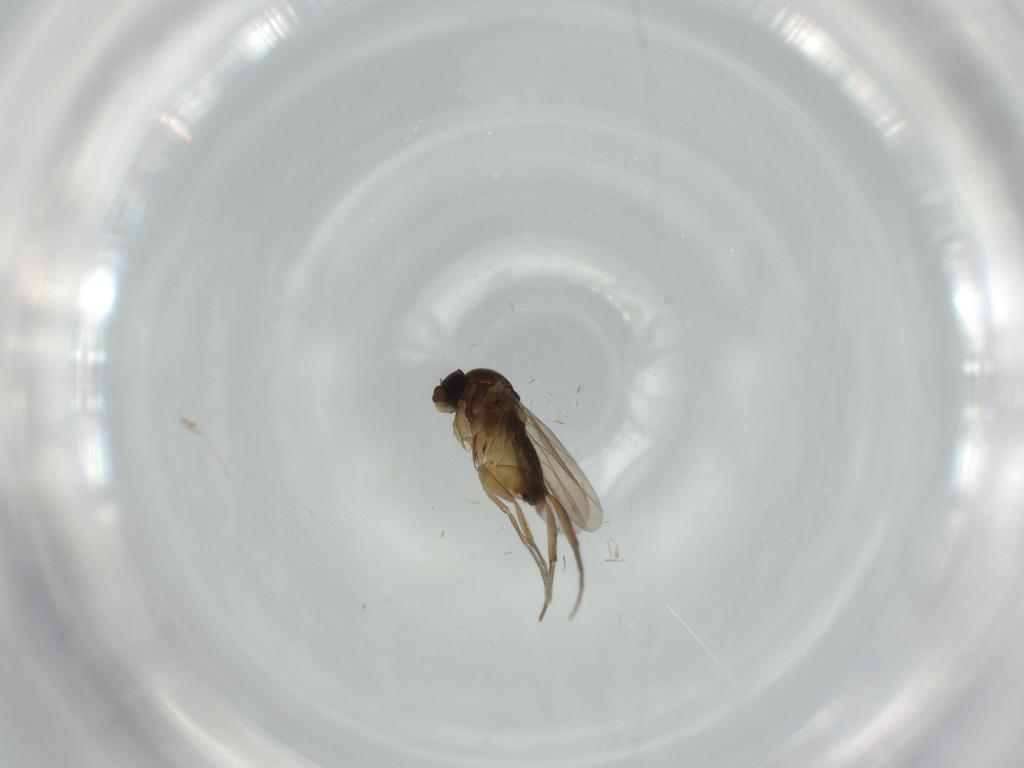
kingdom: Animalia
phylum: Arthropoda
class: Insecta
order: Diptera
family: Phoridae
